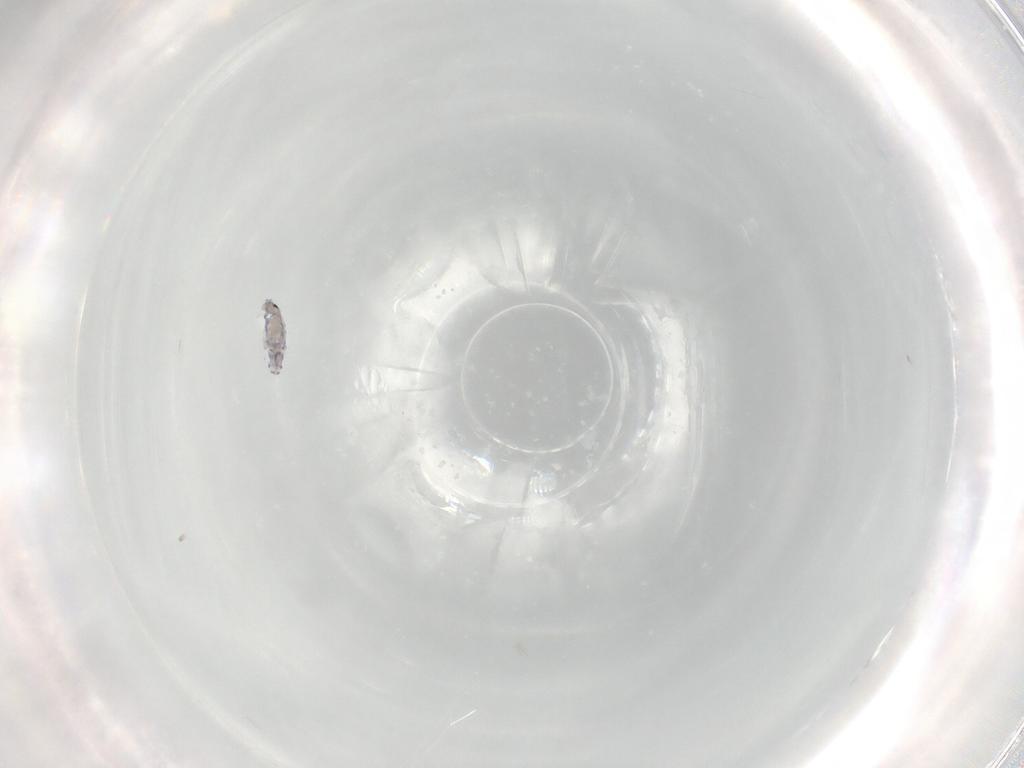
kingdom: Animalia
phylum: Arthropoda
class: Collembola
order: Entomobryomorpha
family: Entomobryidae
